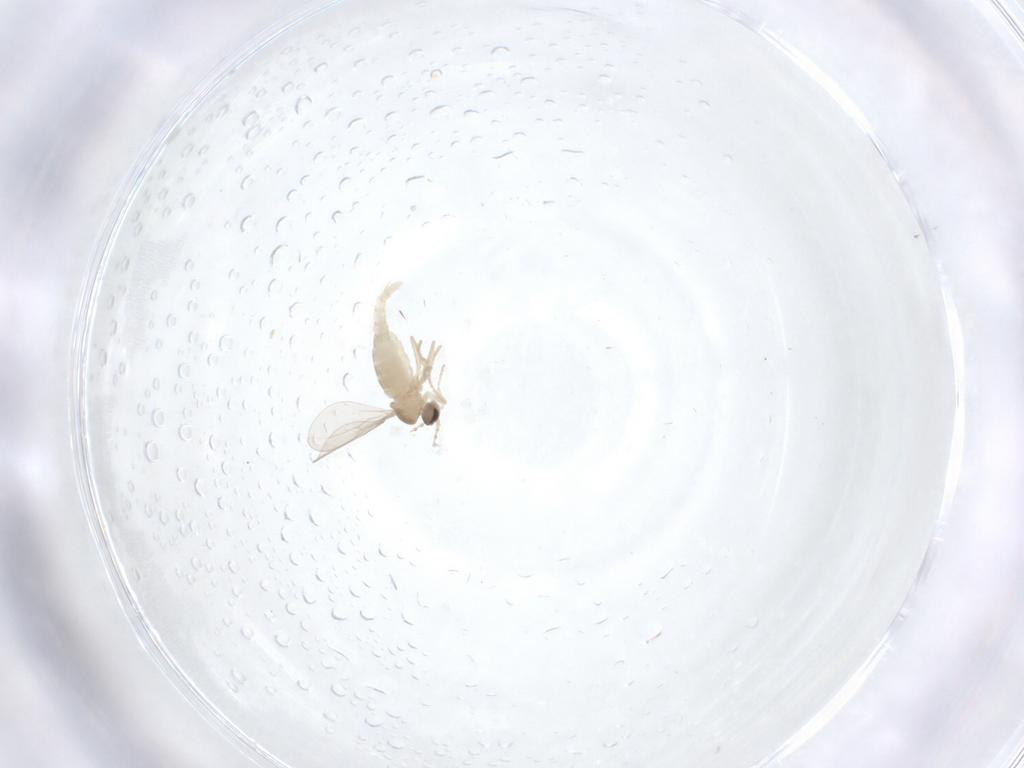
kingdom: Animalia
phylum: Arthropoda
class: Insecta
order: Diptera
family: Phoridae
